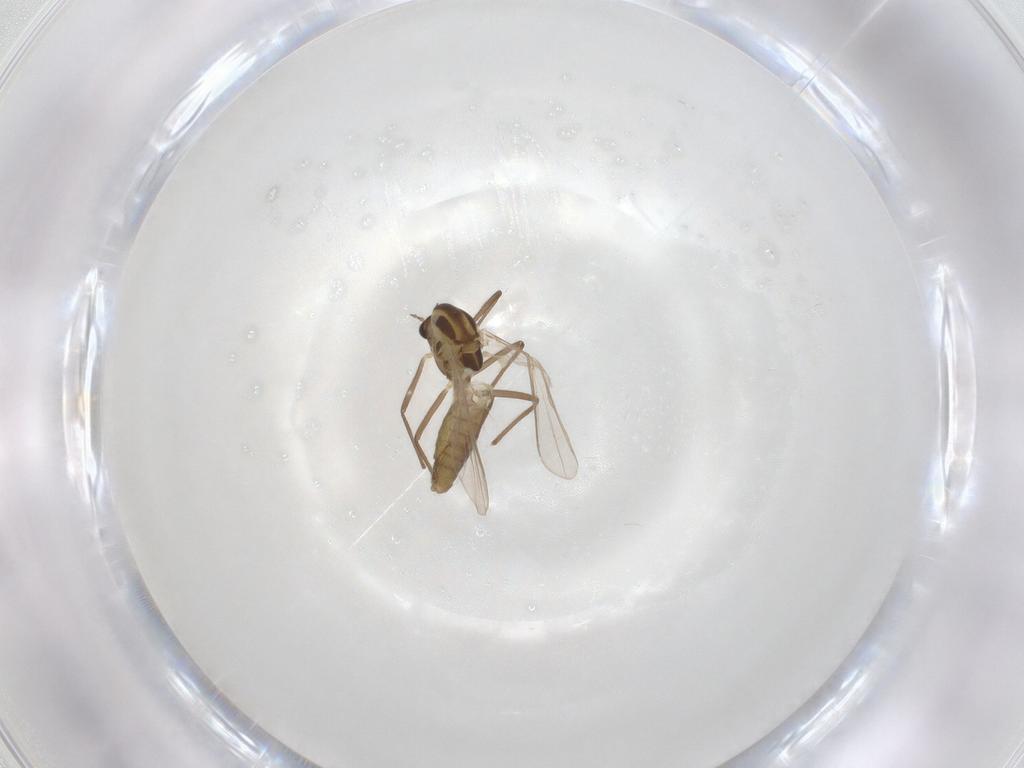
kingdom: Animalia
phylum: Arthropoda
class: Insecta
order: Diptera
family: Chironomidae
